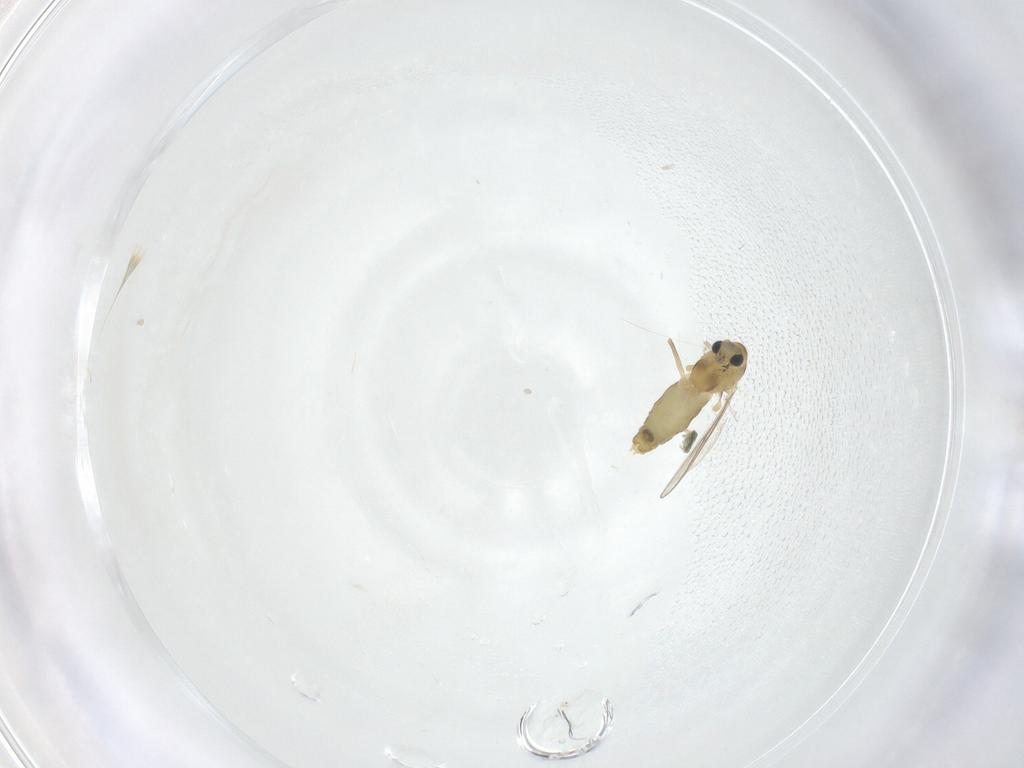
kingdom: Animalia
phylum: Arthropoda
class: Insecta
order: Diptera
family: Chironomidae
